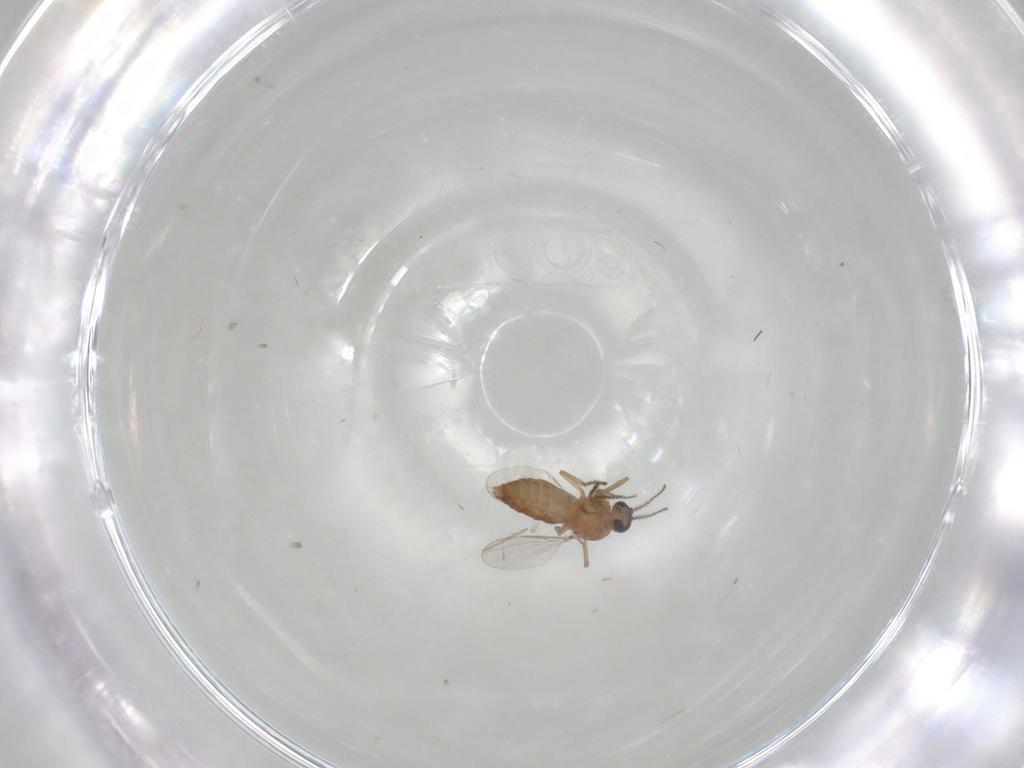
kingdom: Animalia
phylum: Arthropoda
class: Insecta
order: Diptera
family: Ceratopogonidae
